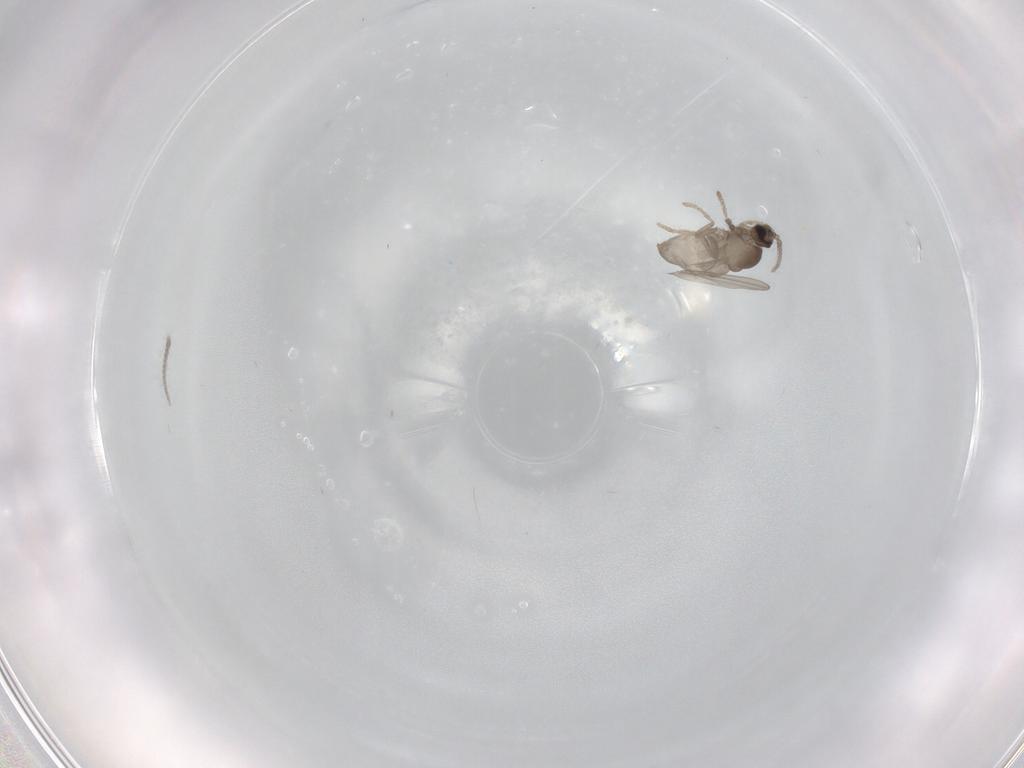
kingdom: Animalia
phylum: Arthropoda
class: Insecta
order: Diptera
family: Cecidomyiidae
